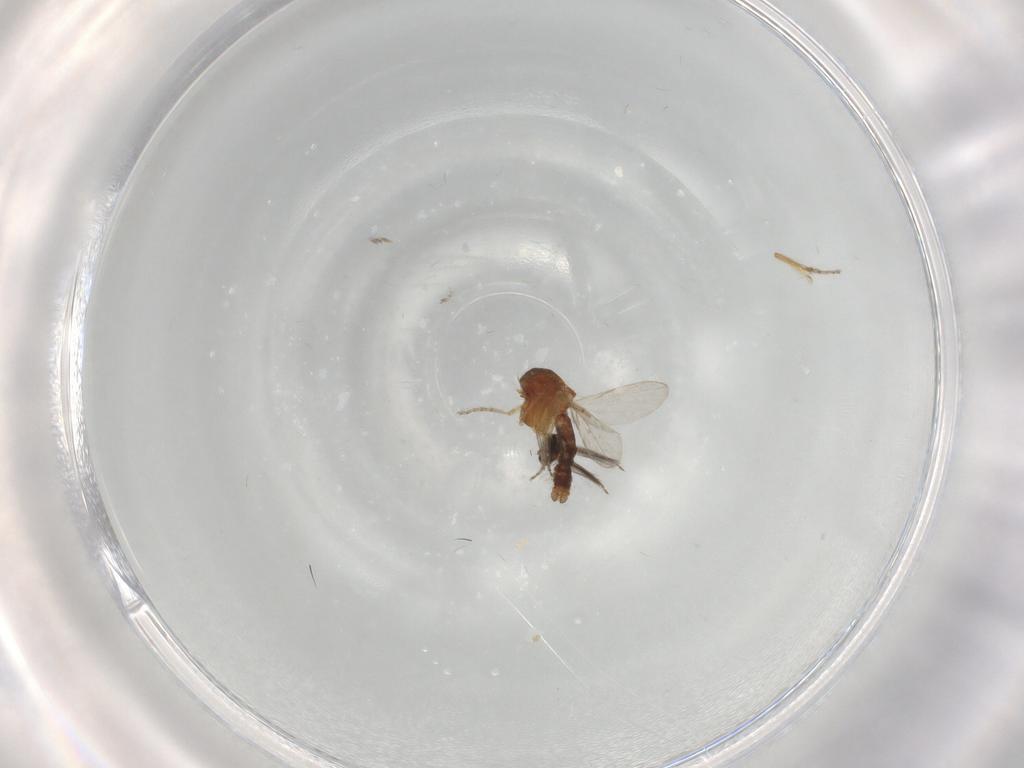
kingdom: Animalia
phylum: Arthropoda
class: Insecta
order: Diptera
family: Ceratopogonidae
